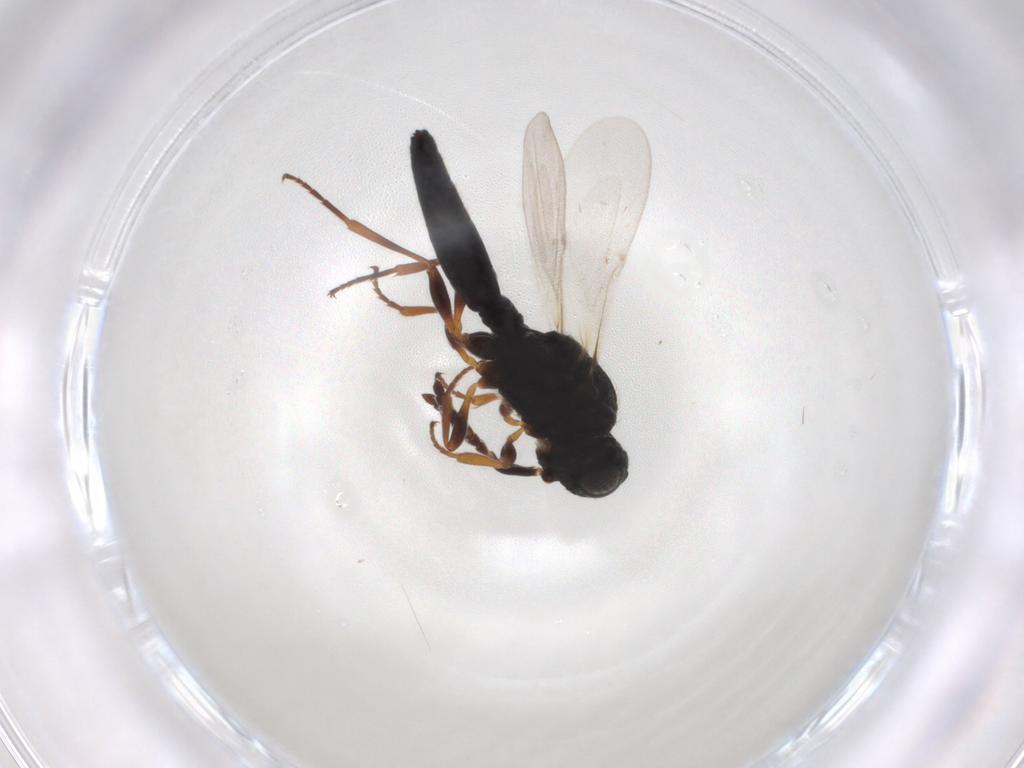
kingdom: Animalia
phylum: Arthropoda
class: Insecta
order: Hymenoptera
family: Scelionidae
